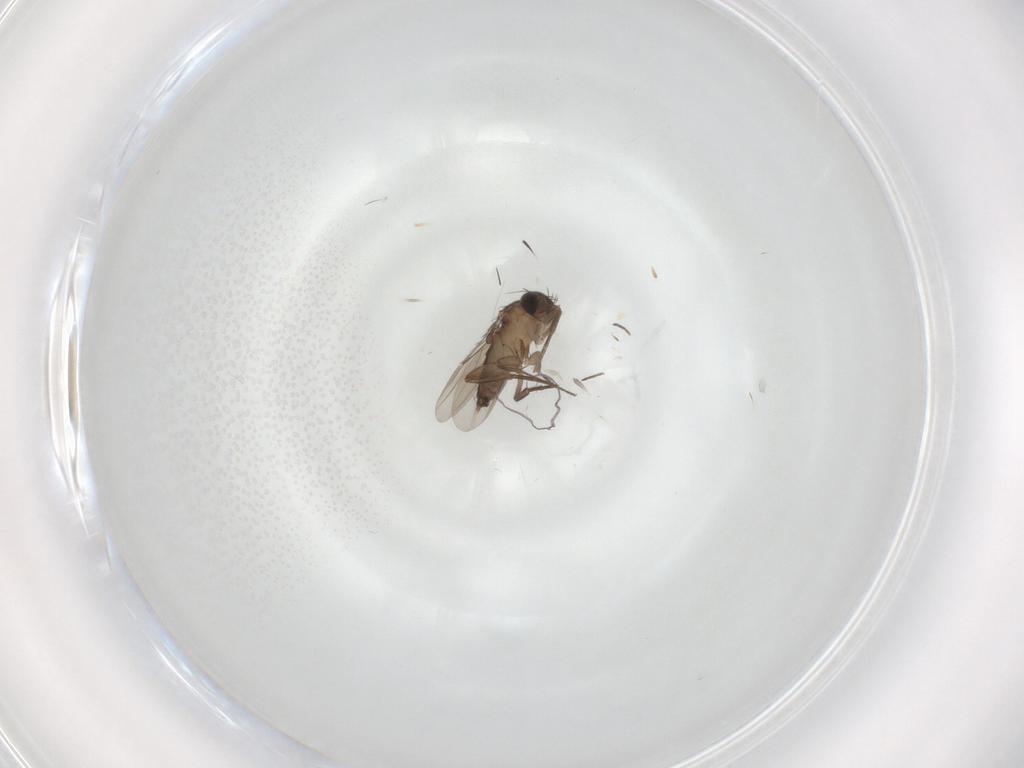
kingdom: Animalia
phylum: Arthropoda
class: Insecta
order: Diptera
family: Phoridae
